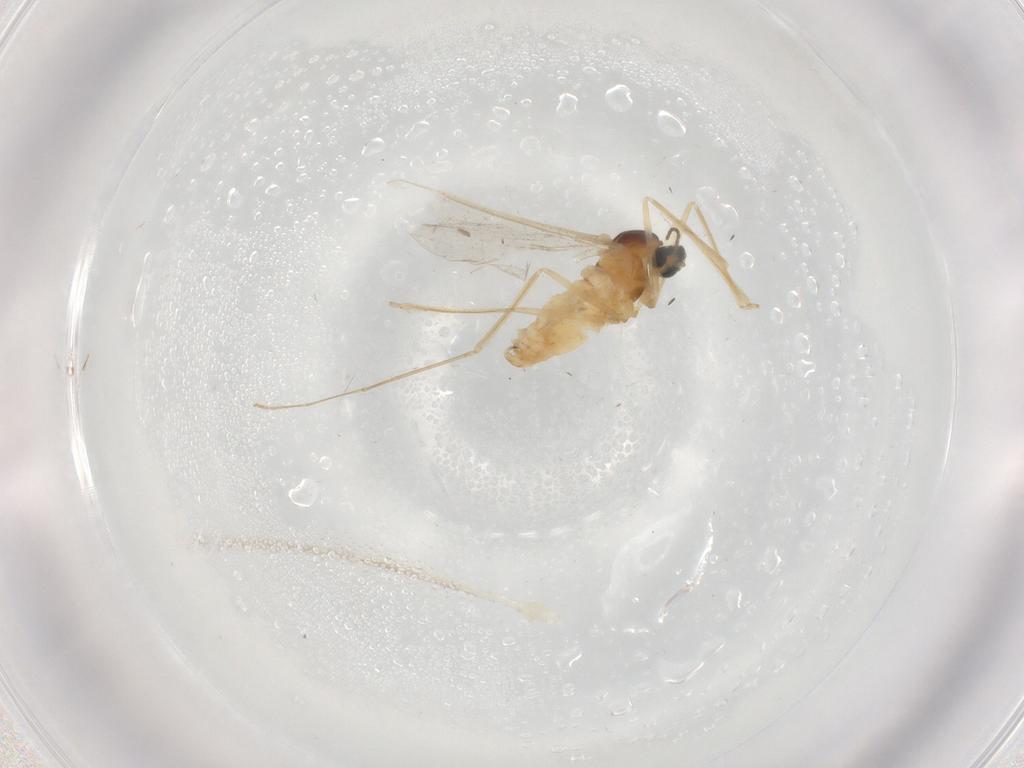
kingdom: Animalia
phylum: Arthropoda
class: Insecta
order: Diptera
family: Cecidomyiidae
